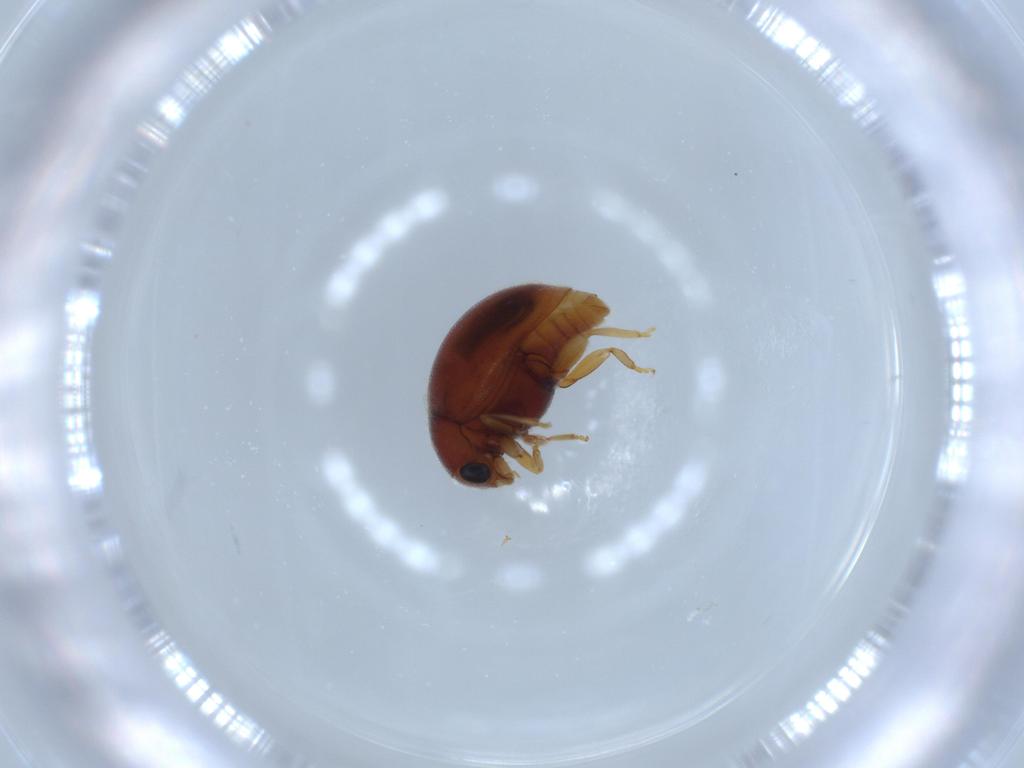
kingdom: Animalia
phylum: Arthropoda
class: Insecta
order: Coleoptera
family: Coccinellidae
